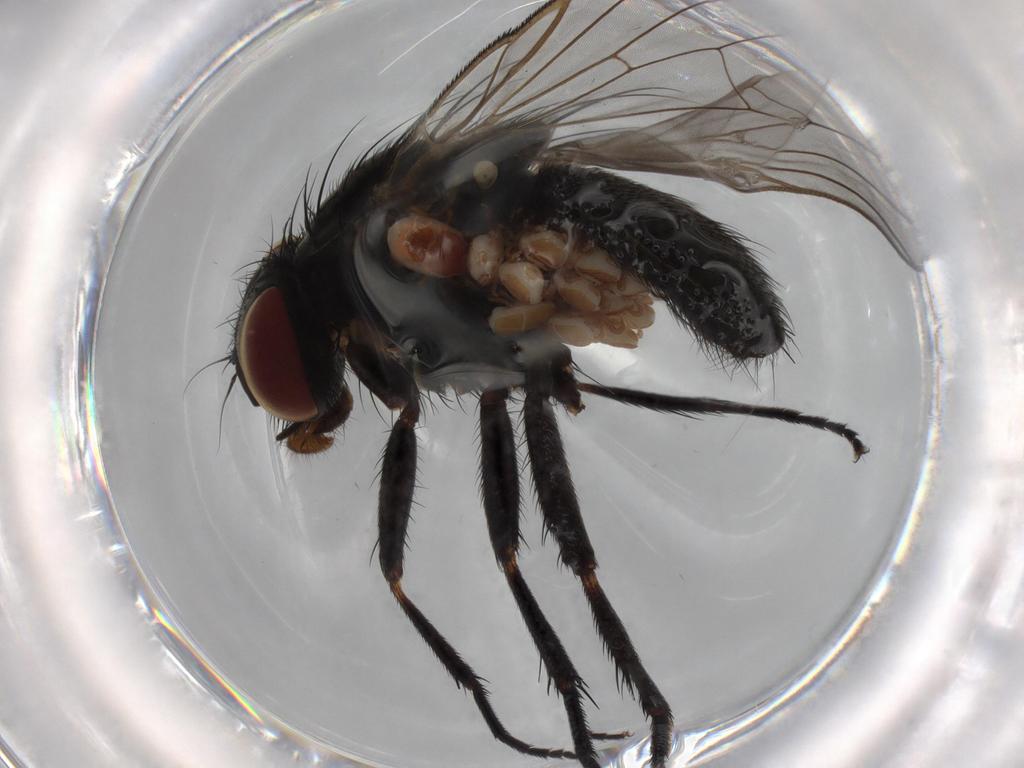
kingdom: Animalia
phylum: Arthropoda
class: Insecta
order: Diptera
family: Fannia
